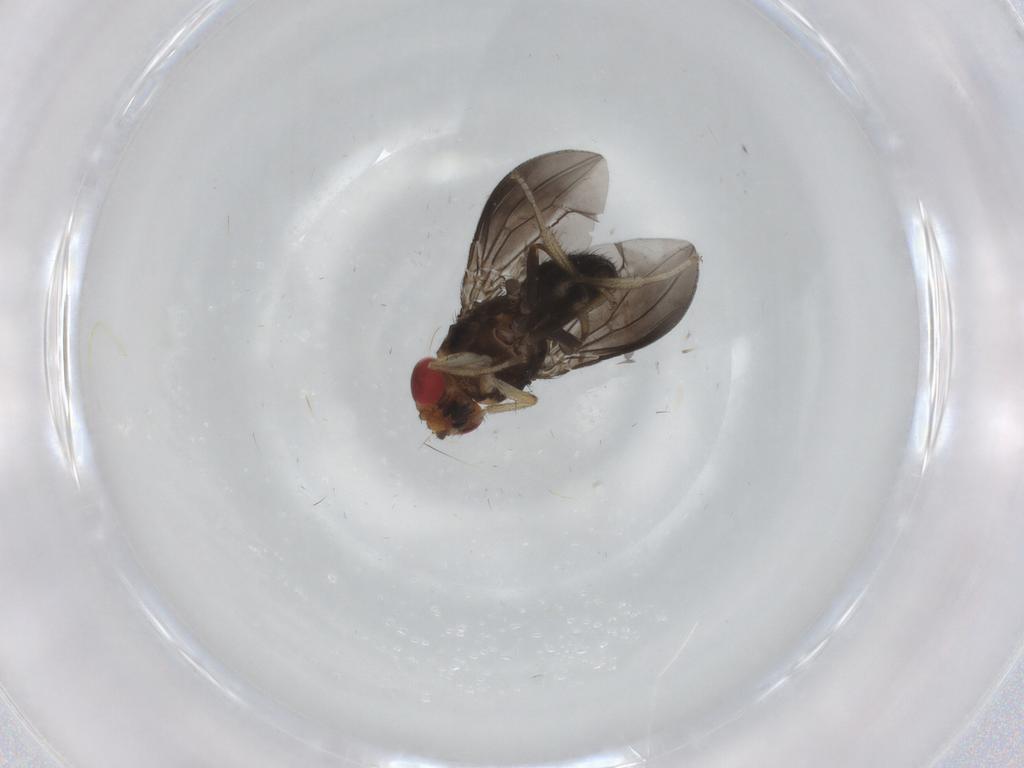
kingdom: Animalia
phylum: Arthropoda
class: Insecta
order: Diptera
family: Drosophilidae
